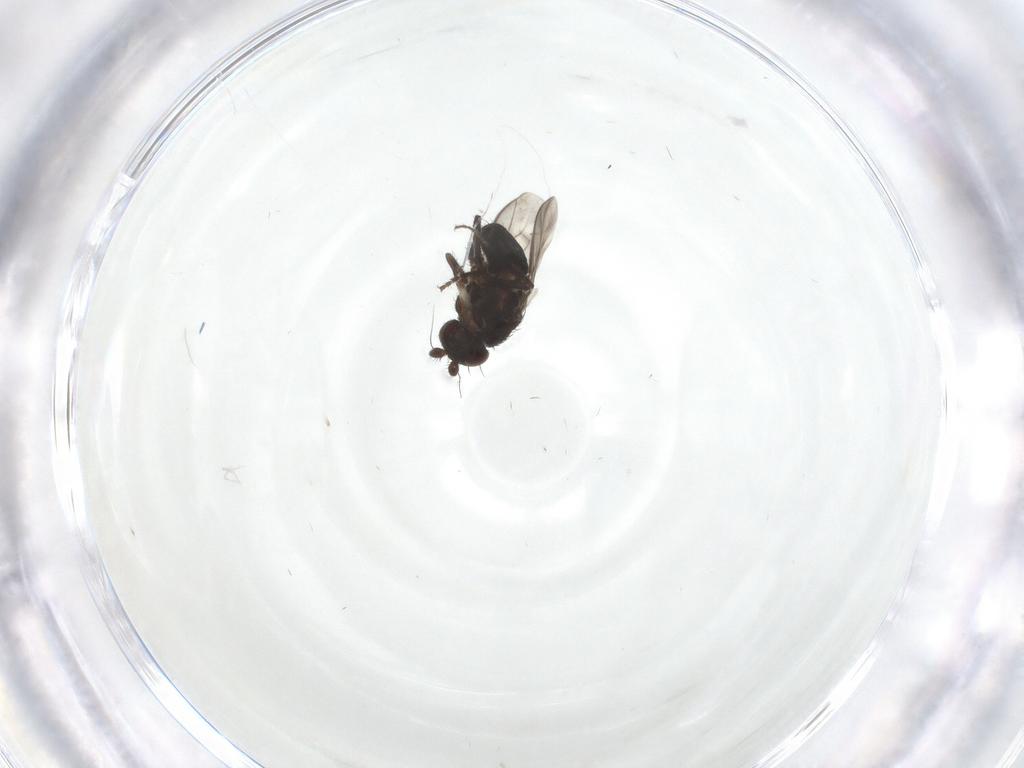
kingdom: Animalia
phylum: Arthropoda
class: Insecta
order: Diptera
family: Sphaeroceridae
